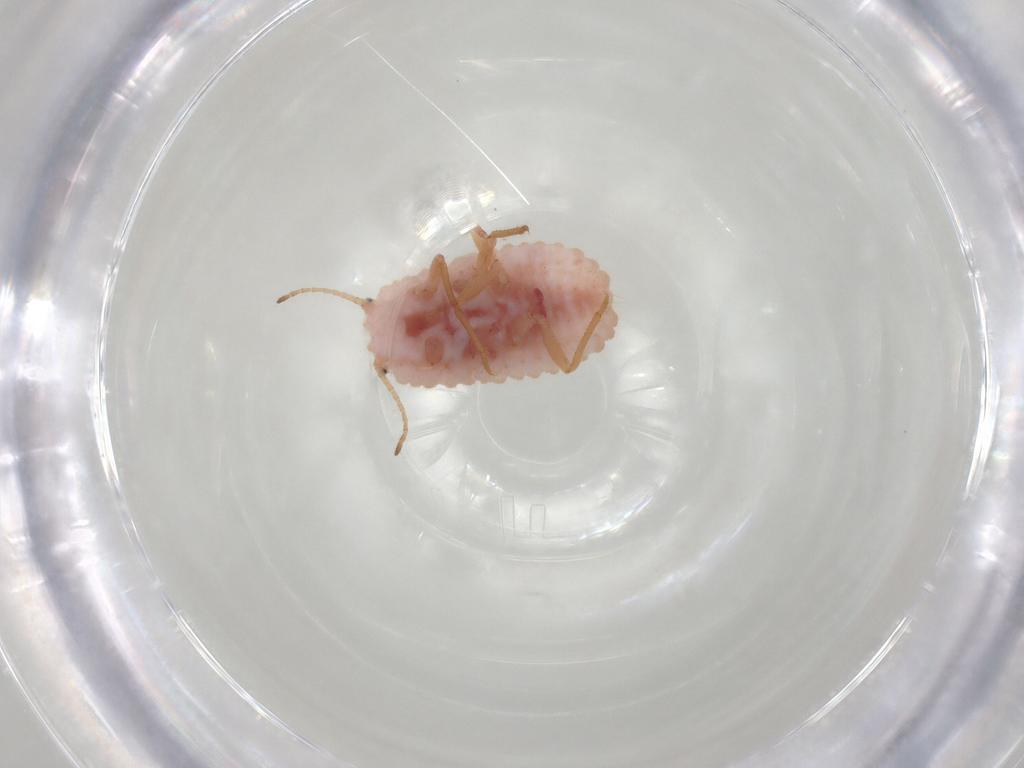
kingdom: Animalia
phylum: Arthropoda
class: Insecta
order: Hemiptera
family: Coccoidea_incertae_sedis
